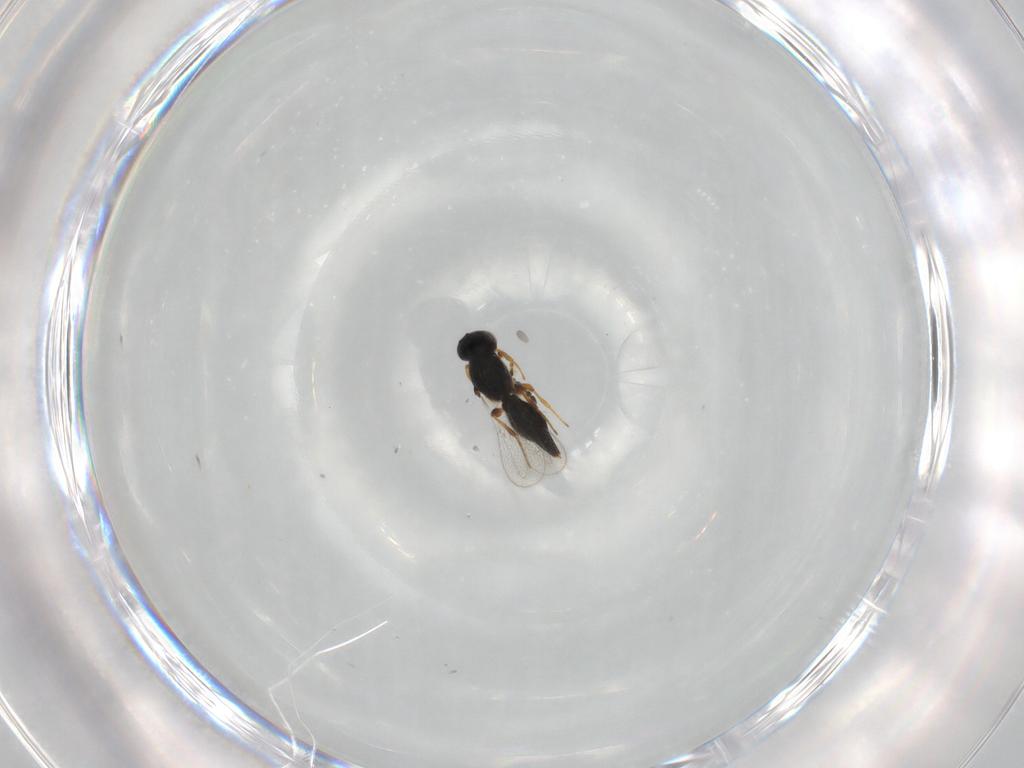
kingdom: Animalia
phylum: Arthropoda
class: Insecta
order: Hymenoptera
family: Platygastridae
